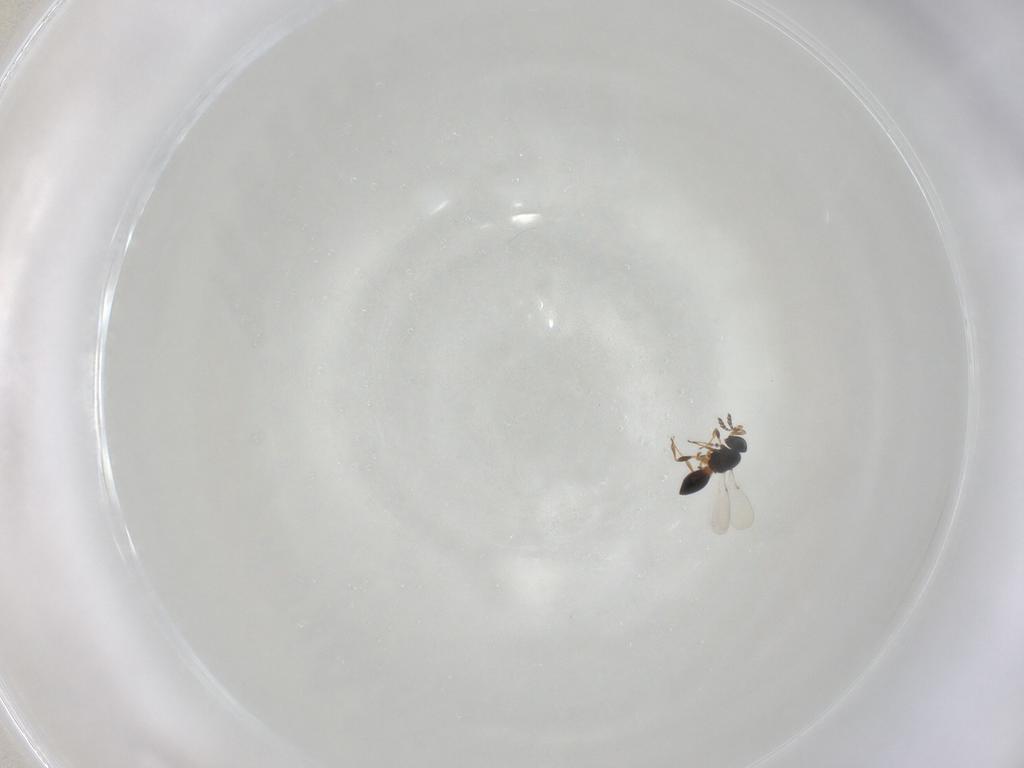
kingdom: Animalia
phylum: Arthropoda
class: Insecta
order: Hymenoptera
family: Platygastridae
